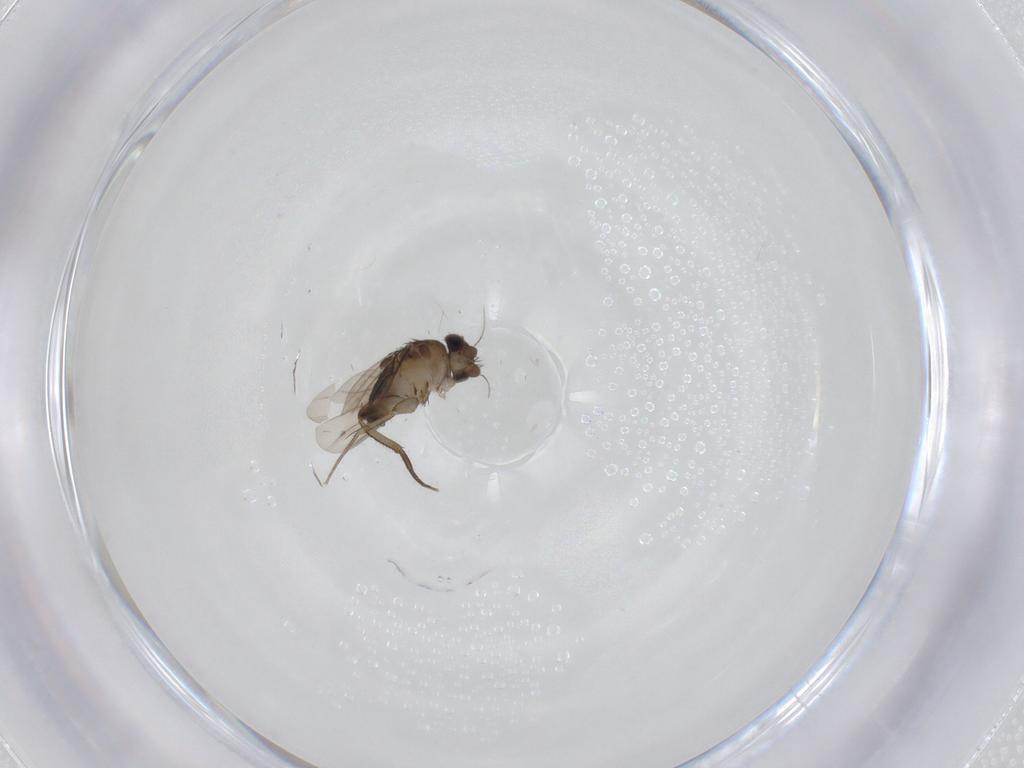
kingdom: Animalia
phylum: Arthropoda
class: Insecta
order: Diptera
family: Phoridae
